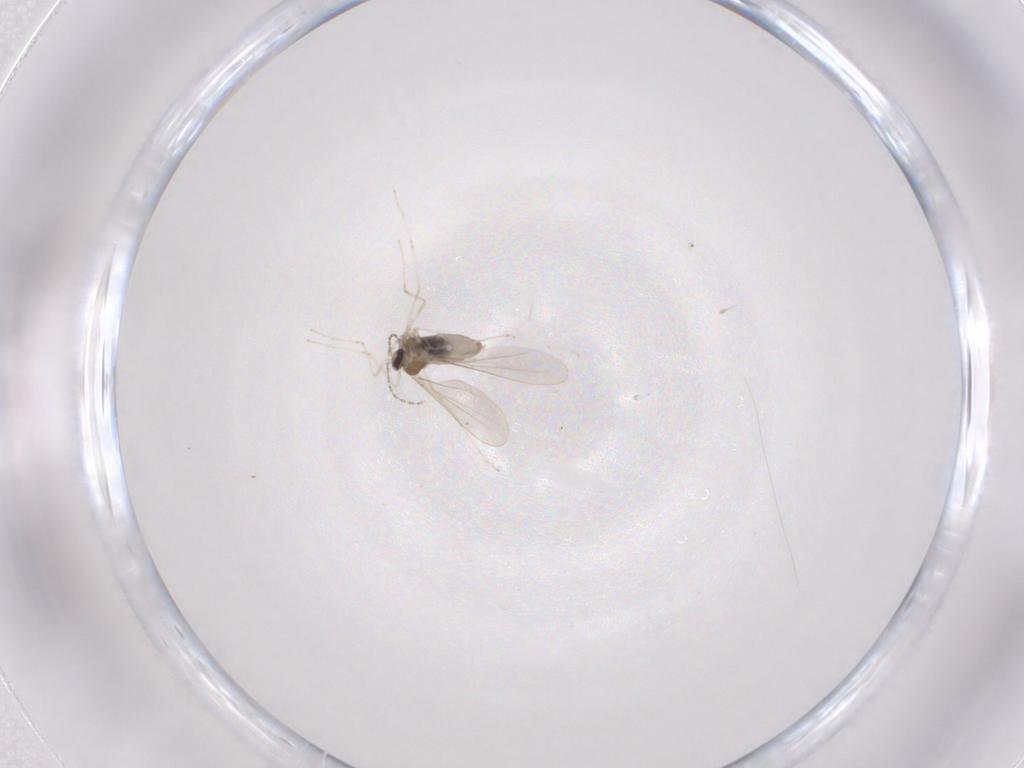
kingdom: Animalia
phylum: Arthropoda
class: Insecta
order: Diptera
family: Cecidomyiidae
